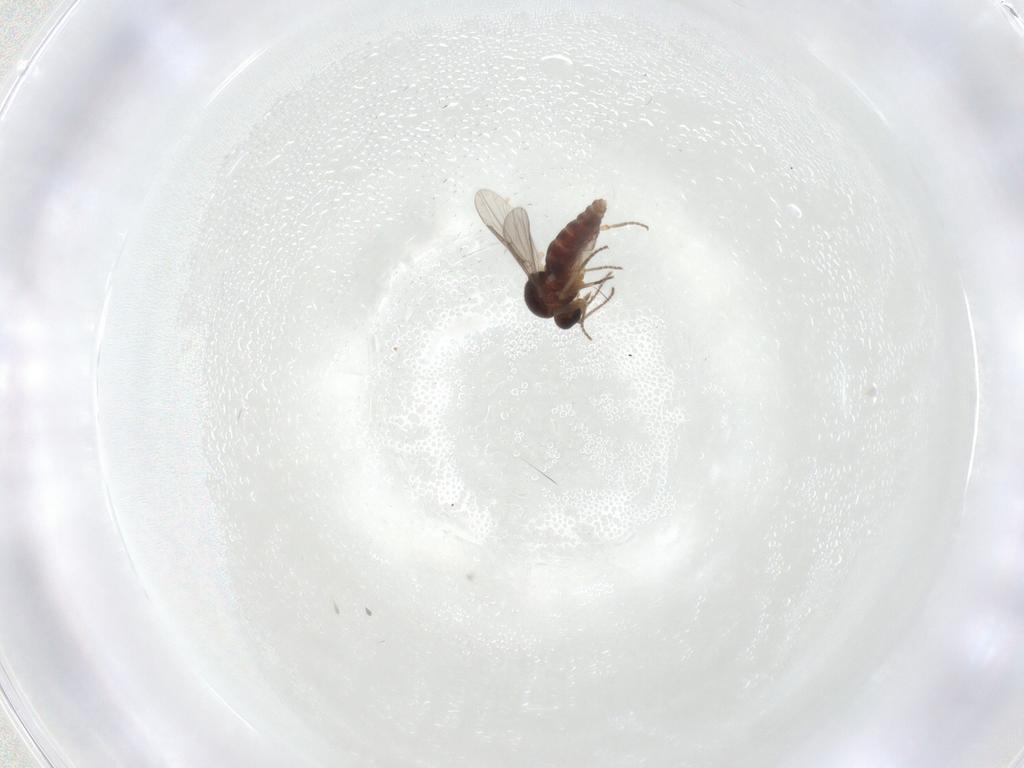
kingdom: Animalia
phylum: Arthropoda
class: Insecta
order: Diptera
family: Ceratopogonidae
